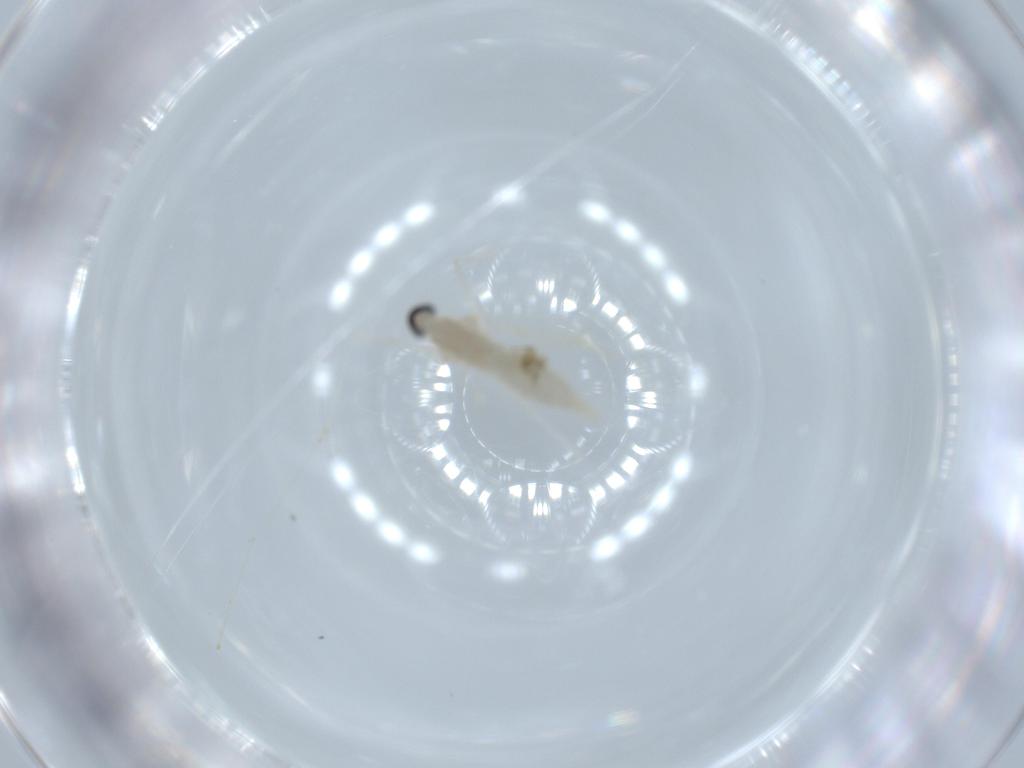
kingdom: Animalia
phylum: Arthropoda
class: Insecta
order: Diptera
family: Cecidomyiidae
